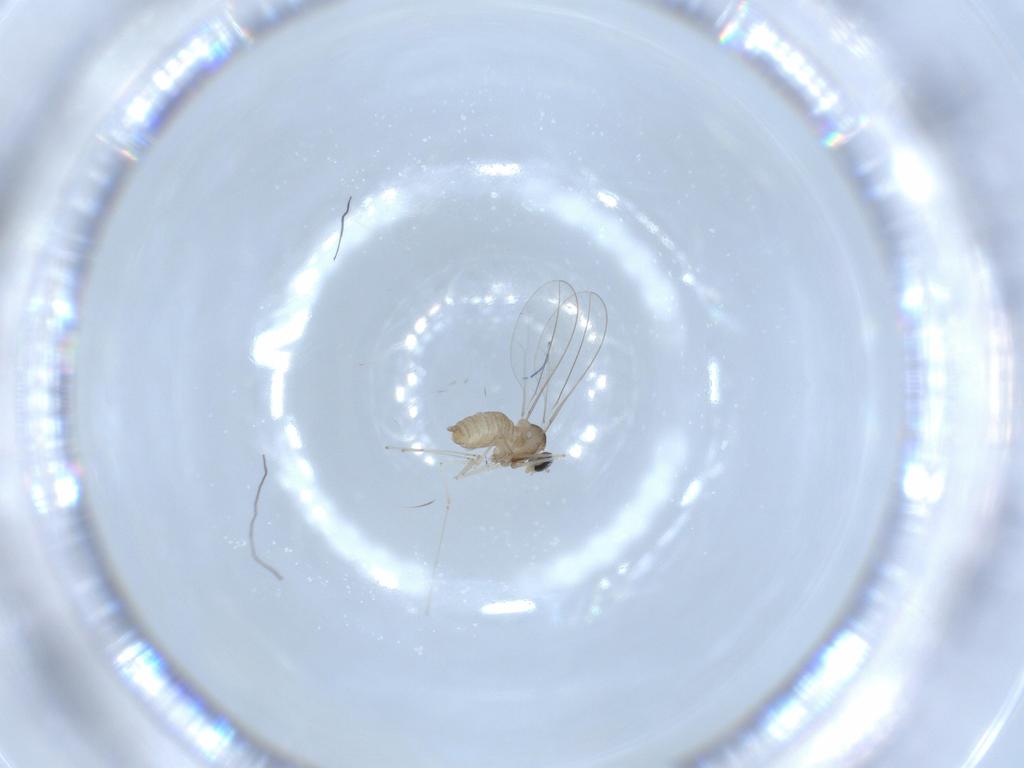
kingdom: Animalia
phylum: Arthropoda
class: Insecta
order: Diptera
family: Cecidomyiidae
